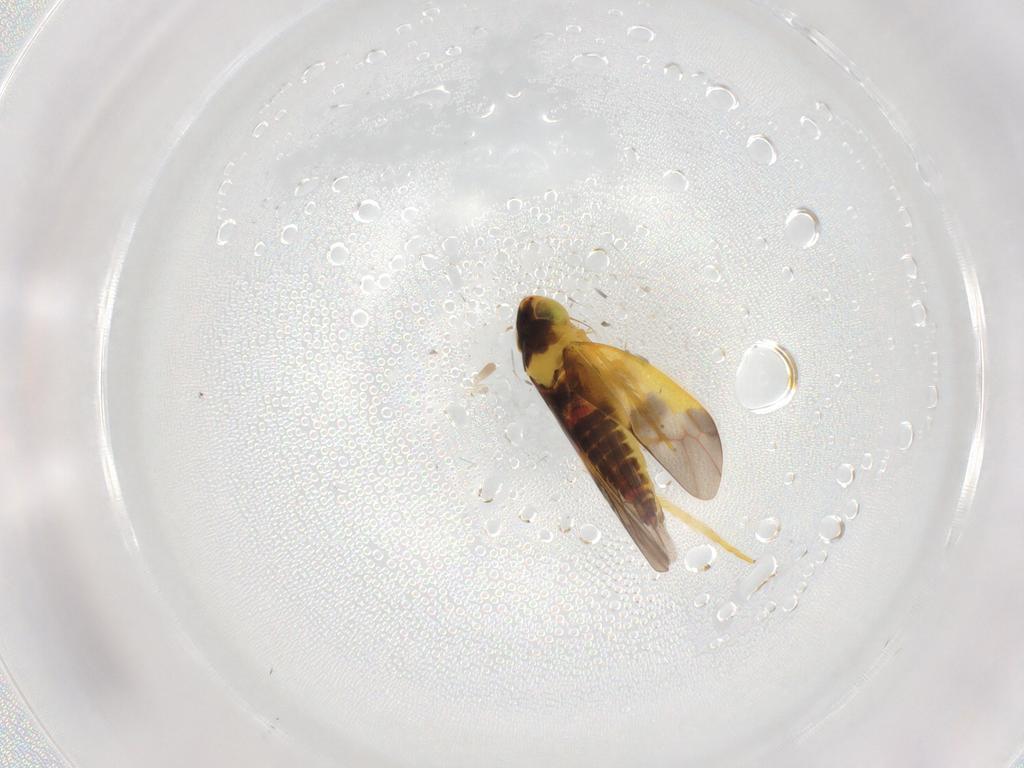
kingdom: Animalia
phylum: Arthropoda
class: Insecta
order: Hemiptera
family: Cicadellidae
